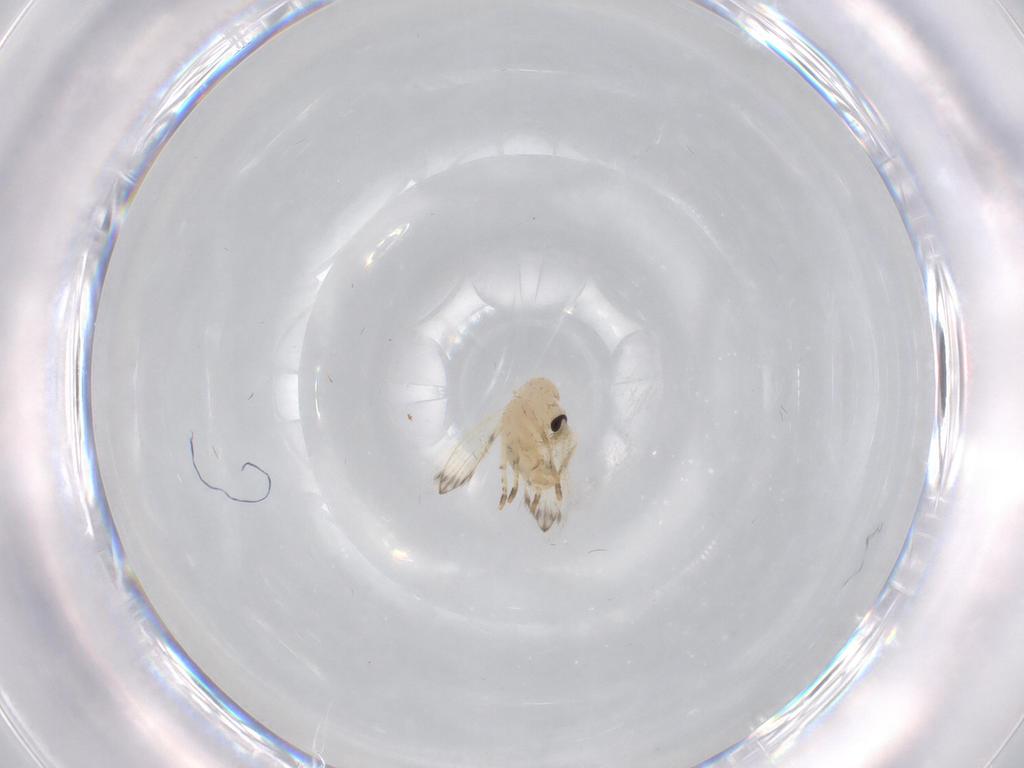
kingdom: Animalia
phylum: Arthropoda
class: Insecta
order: Diptera
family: Psychodidae
